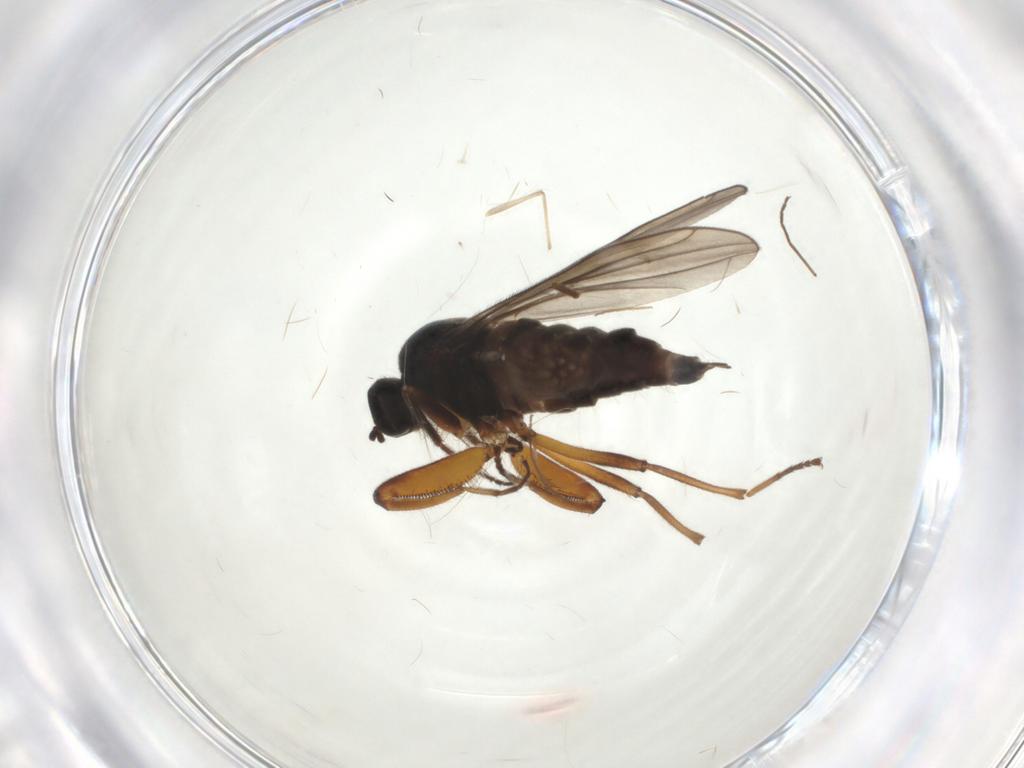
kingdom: Animalia
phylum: Arthropoda
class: Insecta
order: Diptera
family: Hybotidae
